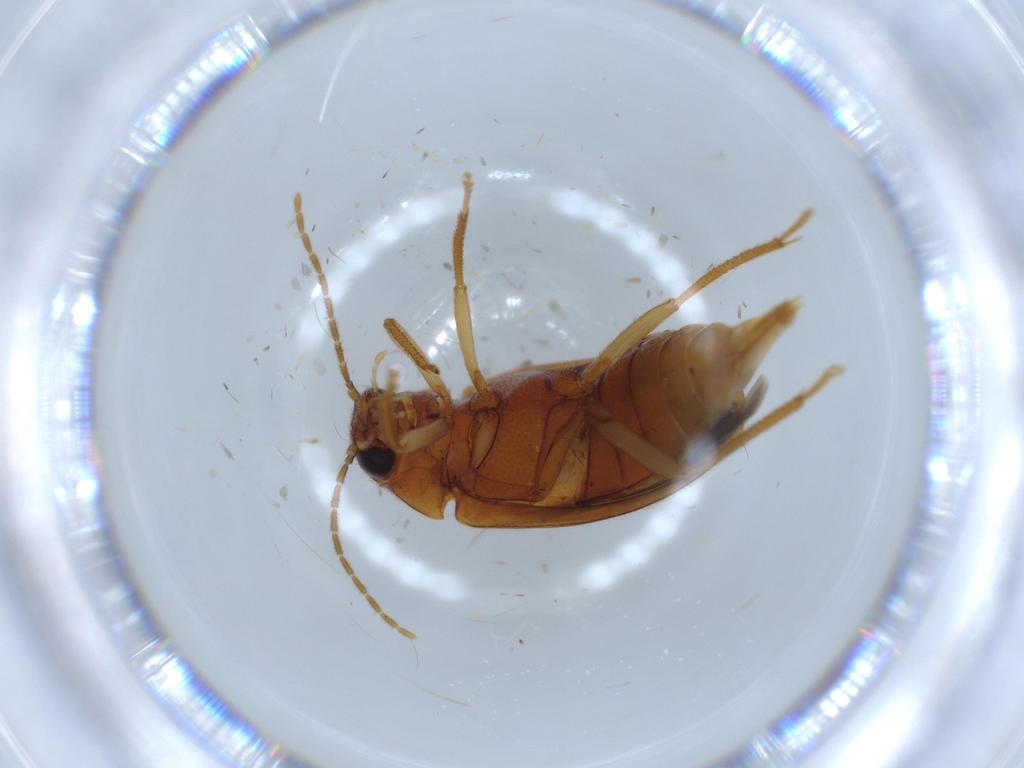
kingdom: Animalia
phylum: Arthropoda
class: Insecta
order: Coleoptera
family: Ptilodactylidae
